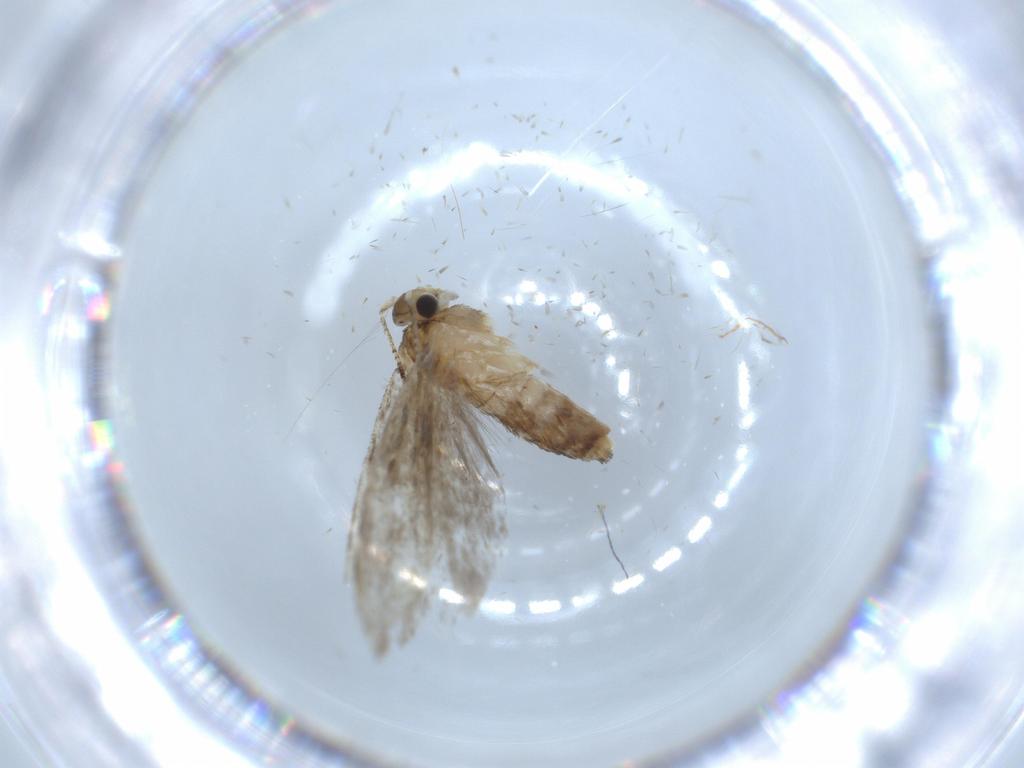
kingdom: Animalia
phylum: Arthropoda
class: Insecta
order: Lepidoptera
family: Tineidae
